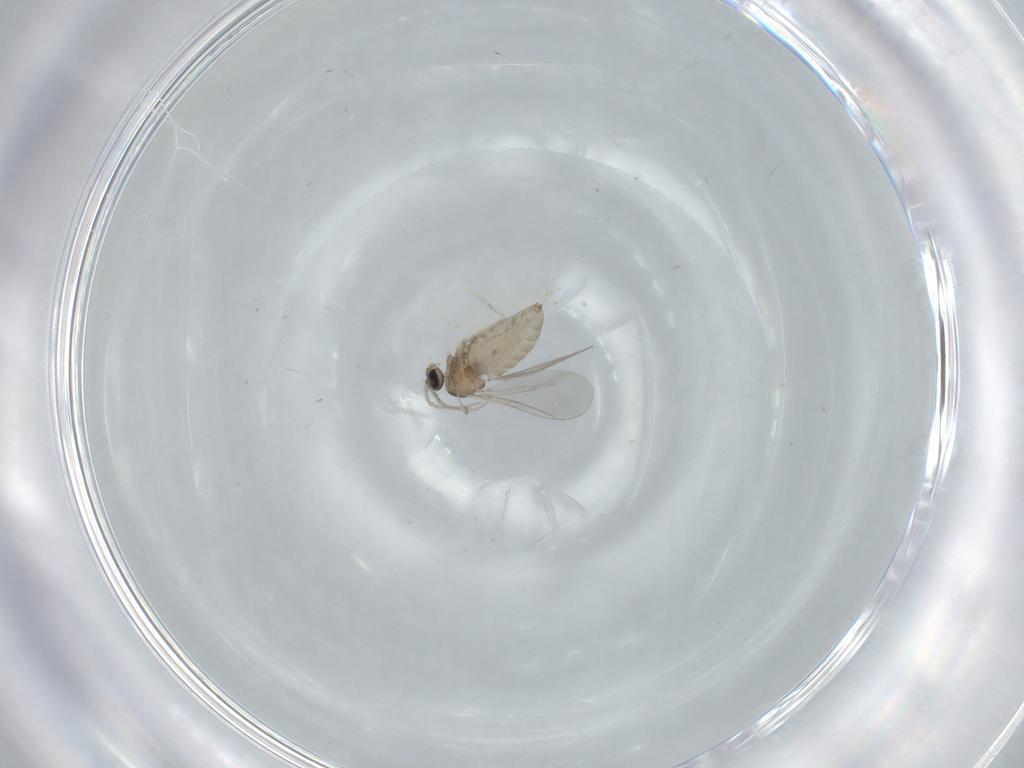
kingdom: Animalia
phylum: Arthropoda
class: Insecta
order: Diptera
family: Cecidomyiidae
